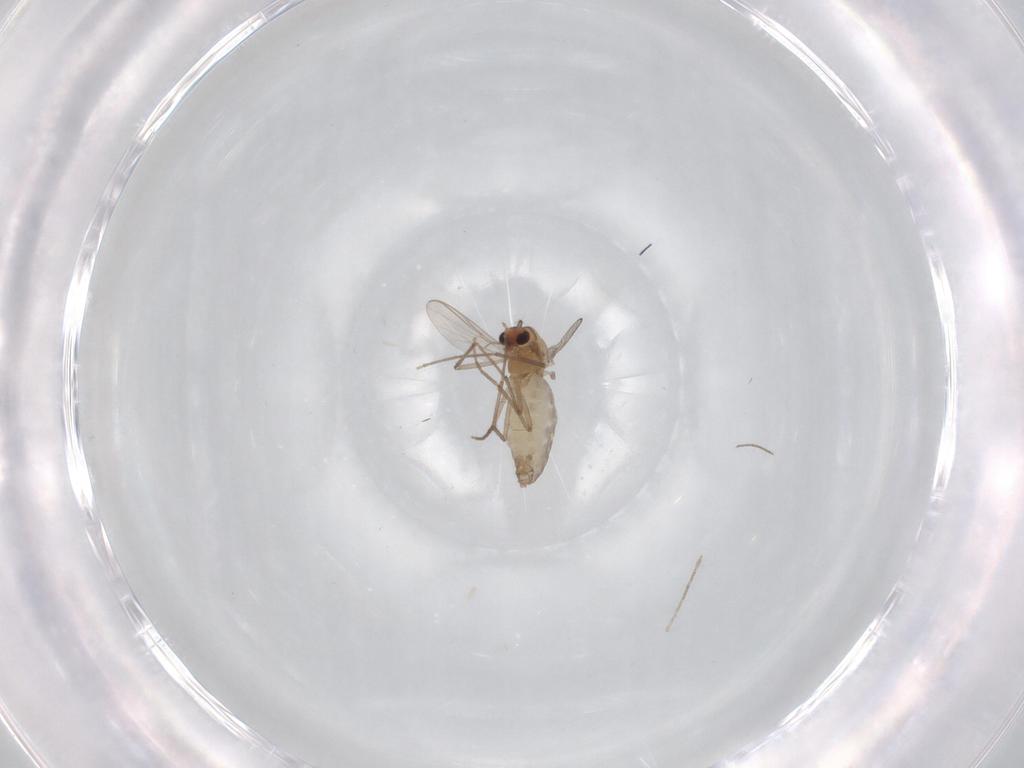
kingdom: Animalia
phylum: Arthropoda
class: Insecta
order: Diptera
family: Chironomidae
